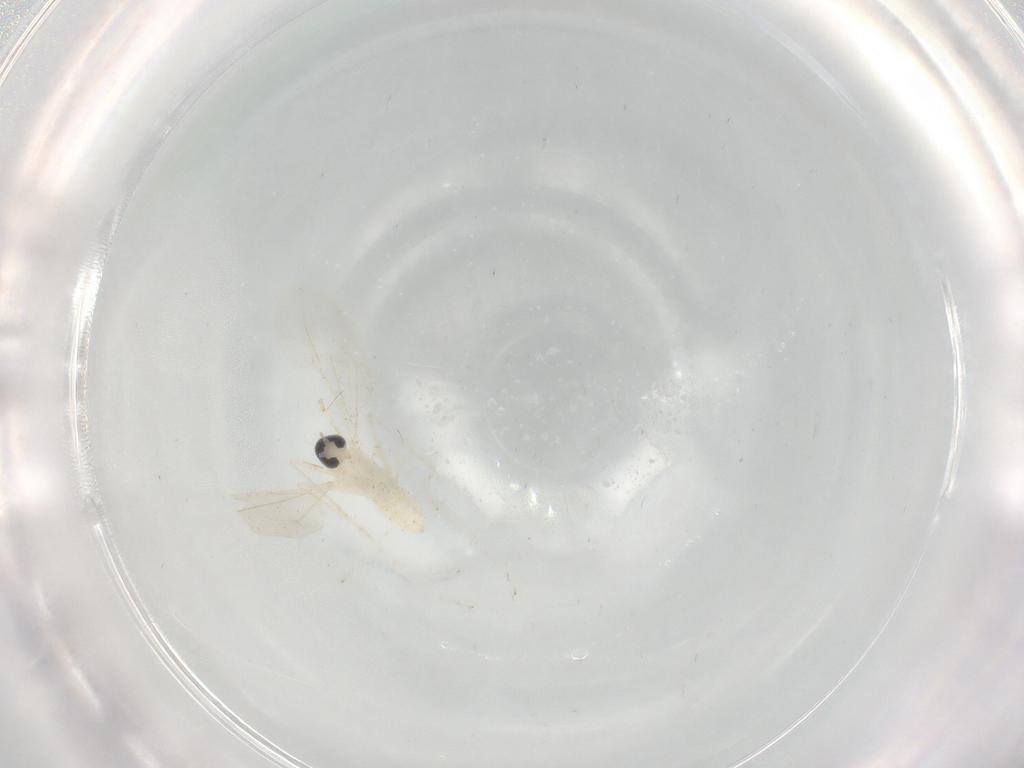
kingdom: Animalia
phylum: Arthropoda
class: Insecta
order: Diptera
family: Cecidomyiidae
